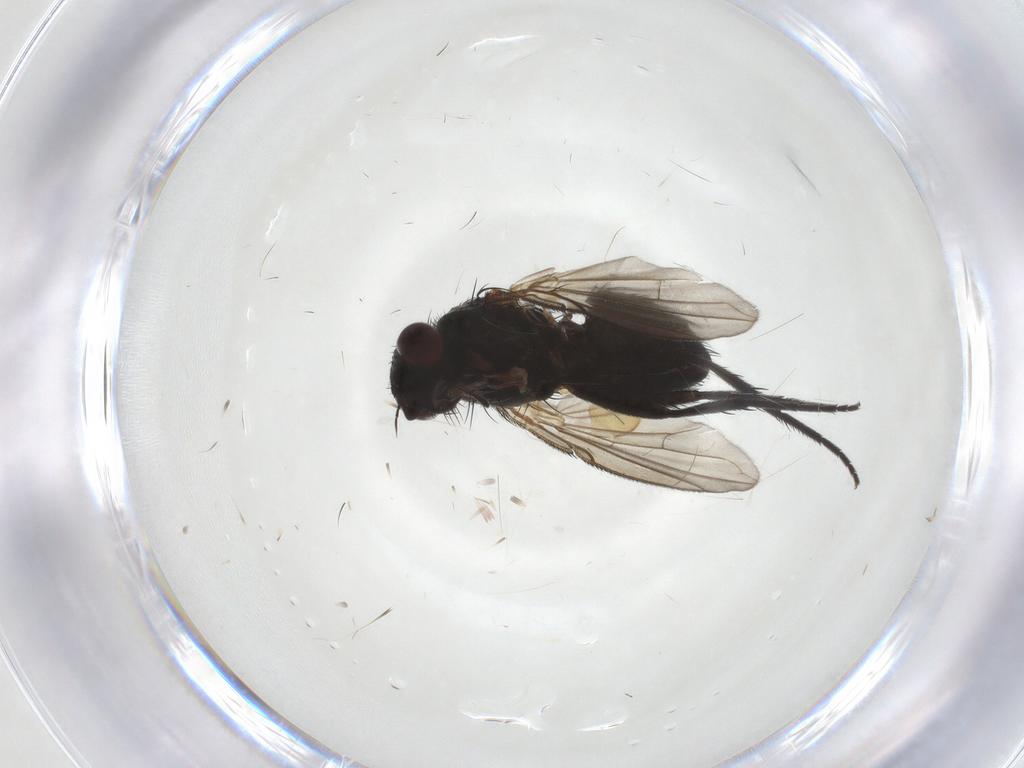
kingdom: Animalia
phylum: Arthropoda
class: Insecta
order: Diptera
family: Tachinidae
